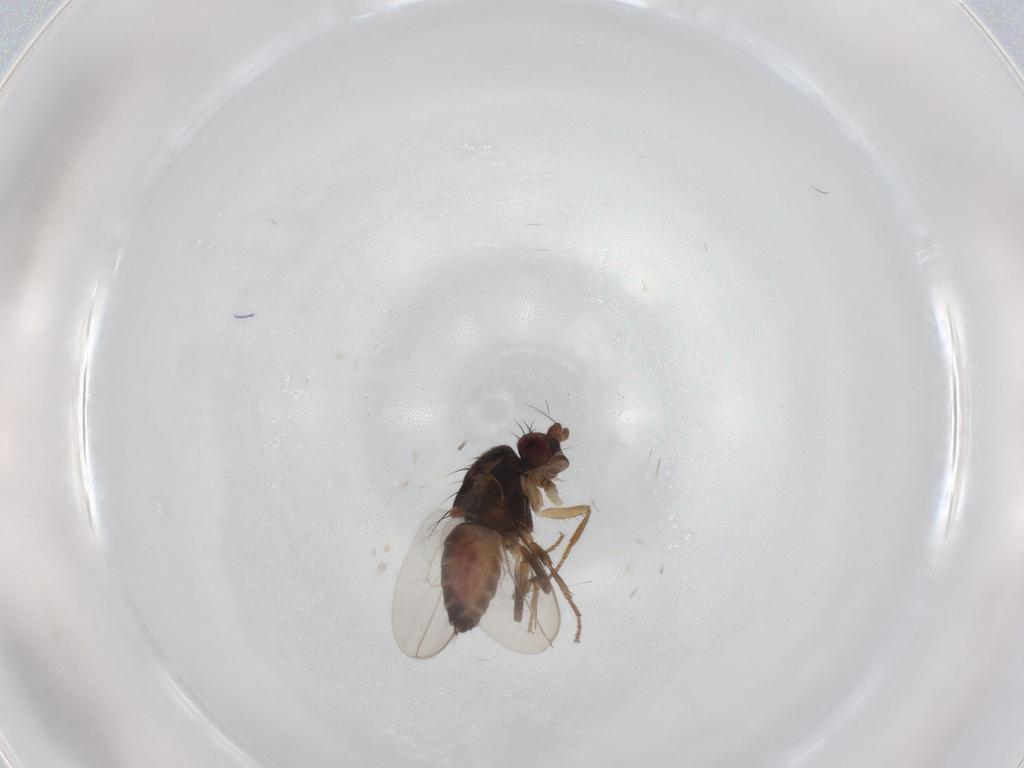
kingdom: Animalia
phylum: Arthropoda
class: Insecta
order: Diptera
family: Sphaeroceridae
